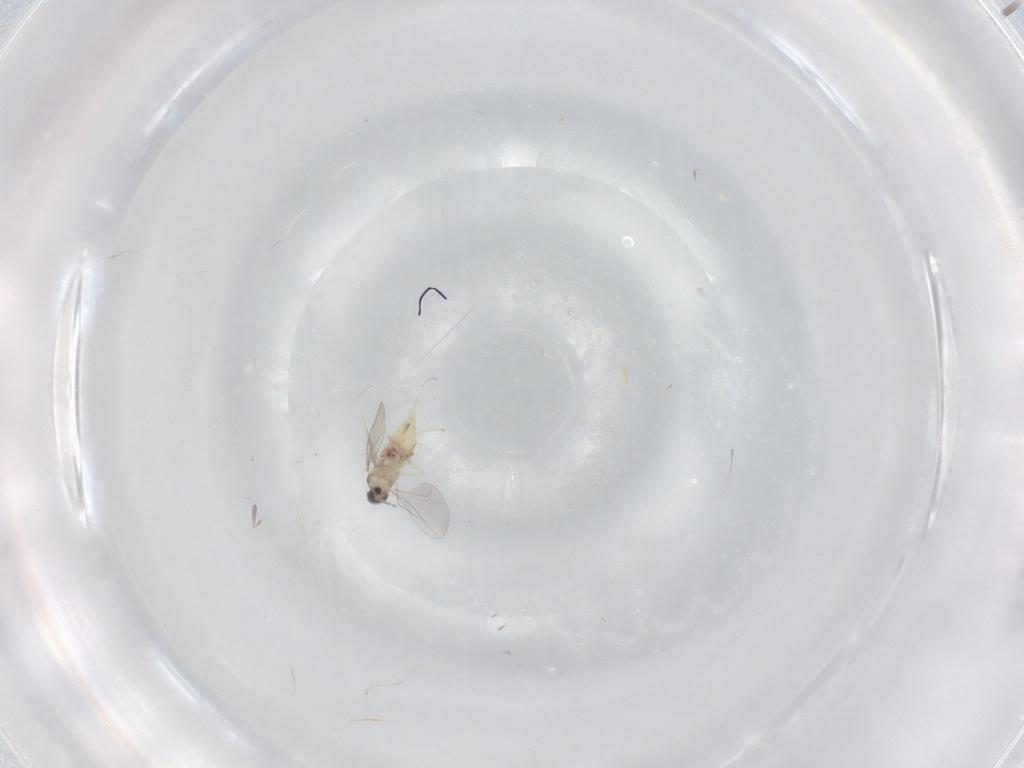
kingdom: Animalia
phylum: Arthropoda
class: Insecta
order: Diptera
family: Cecidomyiidae
